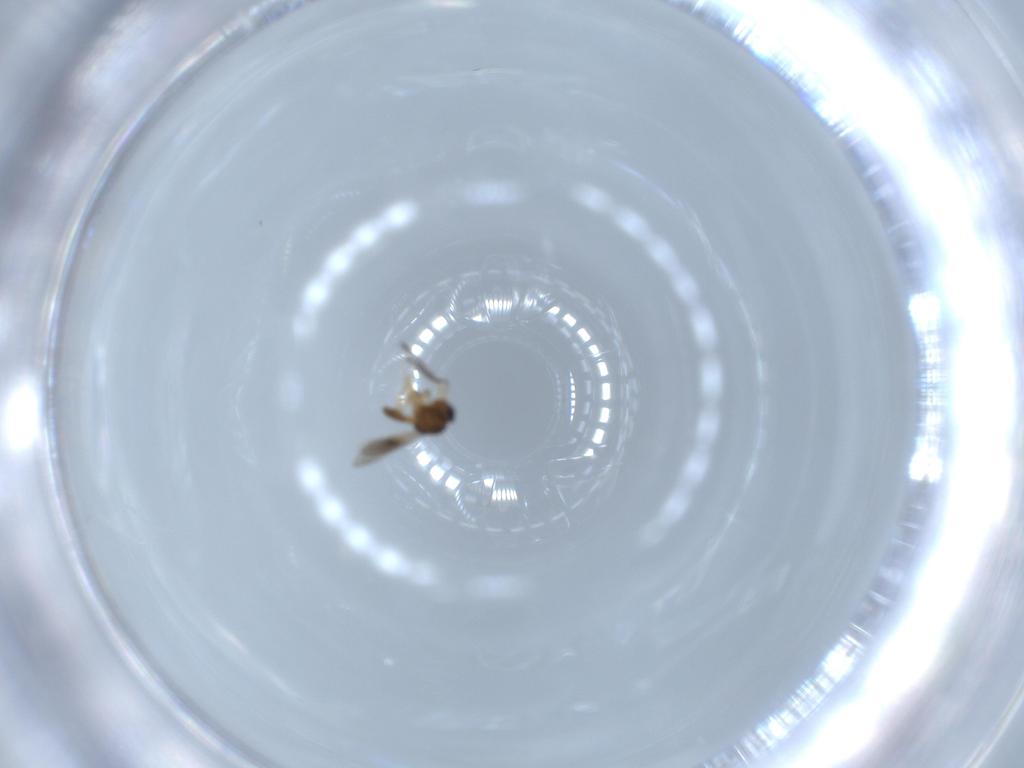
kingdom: Animalia
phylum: Arthropoda
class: Insecta
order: Hymenoptera
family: Scelionidae
